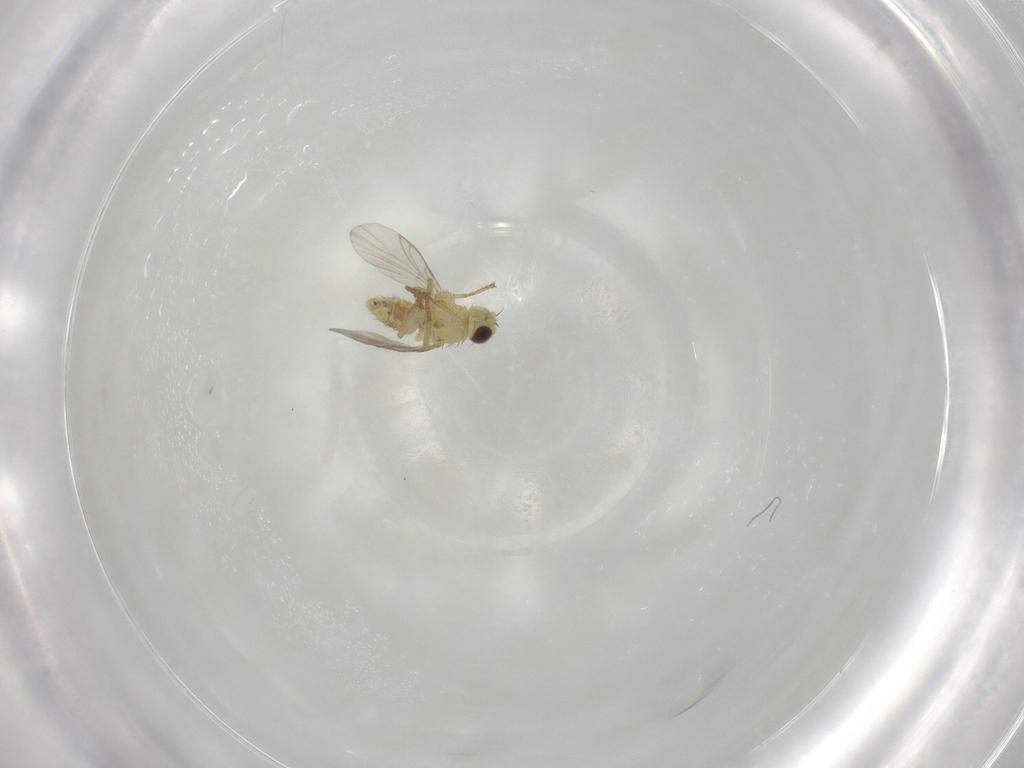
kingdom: Animalia
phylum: Arthropoda
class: Insecta
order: Diptera
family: Agromyzidae
